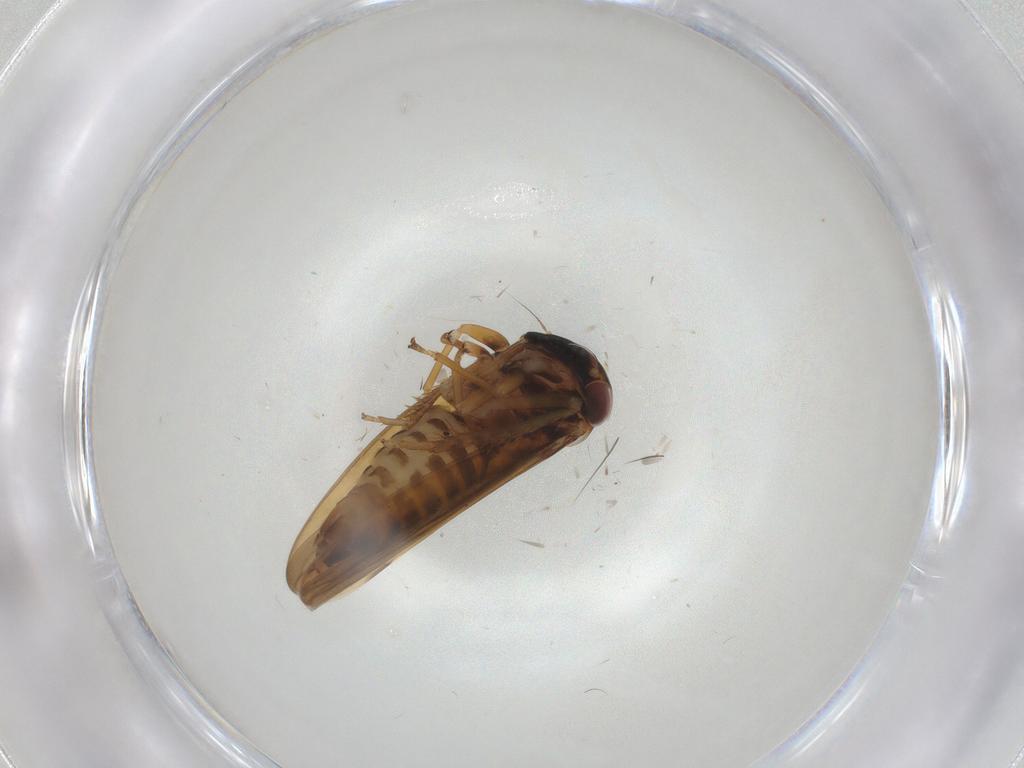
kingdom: Animalia
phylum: Arthropoda
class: Insecta
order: Hemiptera
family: Cicadellidae
